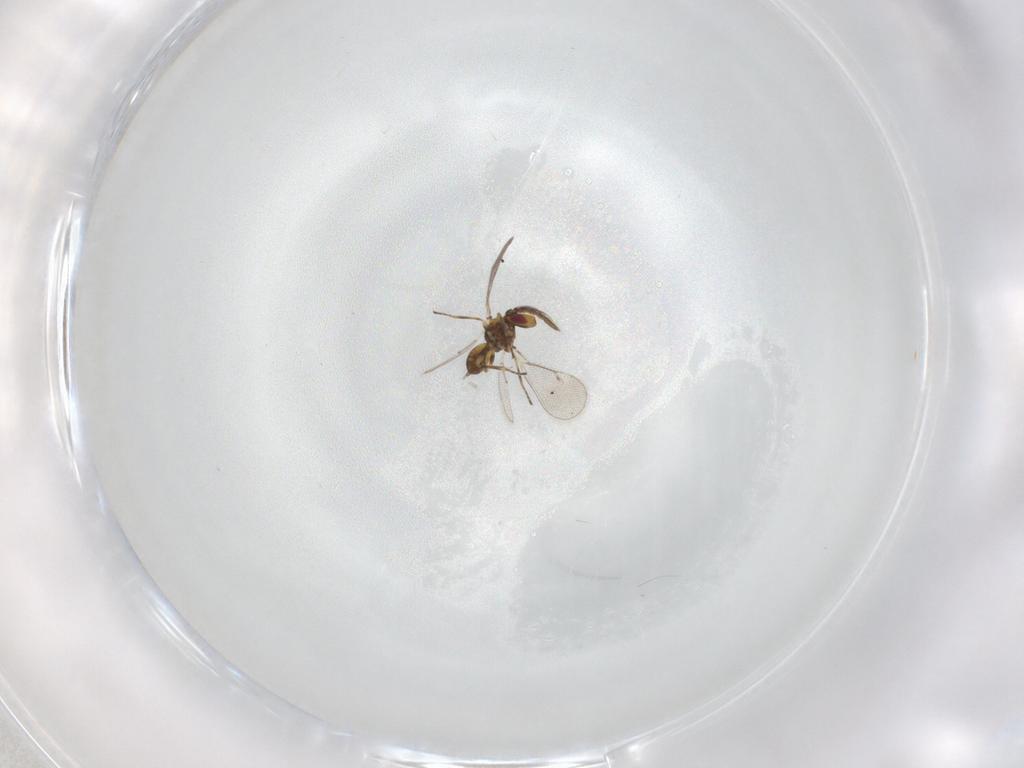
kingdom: Animalia
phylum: Arthropoda
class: Insecta
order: Hymenoptera
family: Eulophidae
